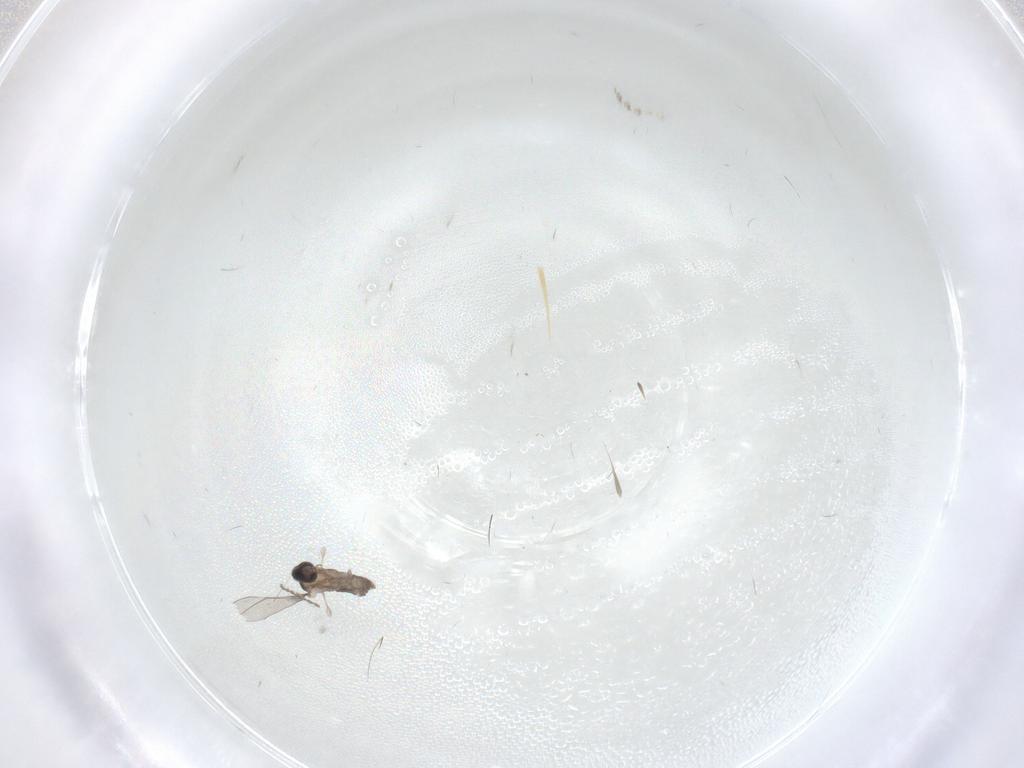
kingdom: Animalia
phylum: Arthropoda
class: Insecta
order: Diptera
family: Cecidomyiidae
